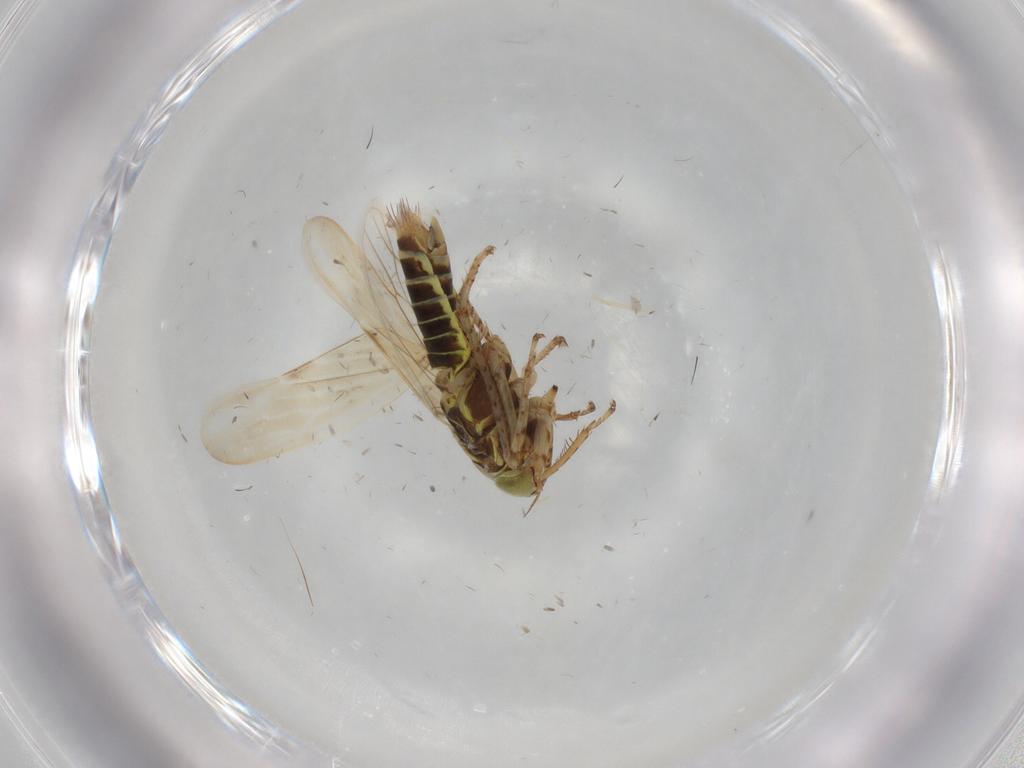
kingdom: Animalia
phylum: Arthropoda
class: Insecta
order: Hemiptera
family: Cicadellidae
